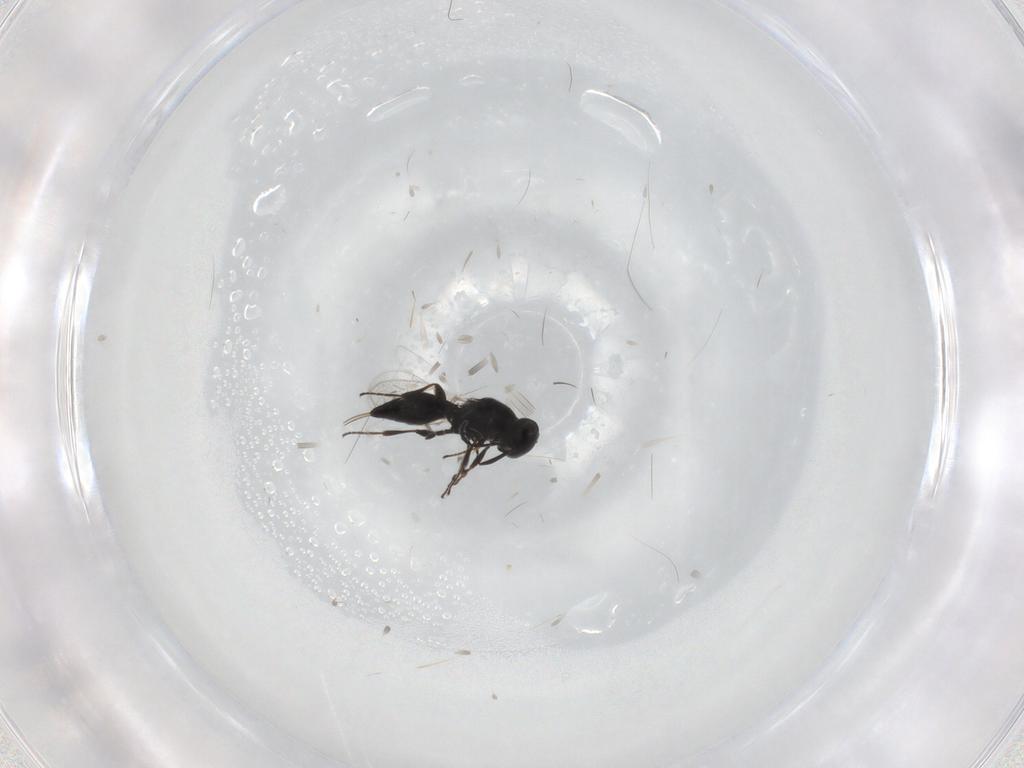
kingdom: Animalia
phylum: Arthropoda
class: Insecta
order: Hymenoptera
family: Platygastridae
